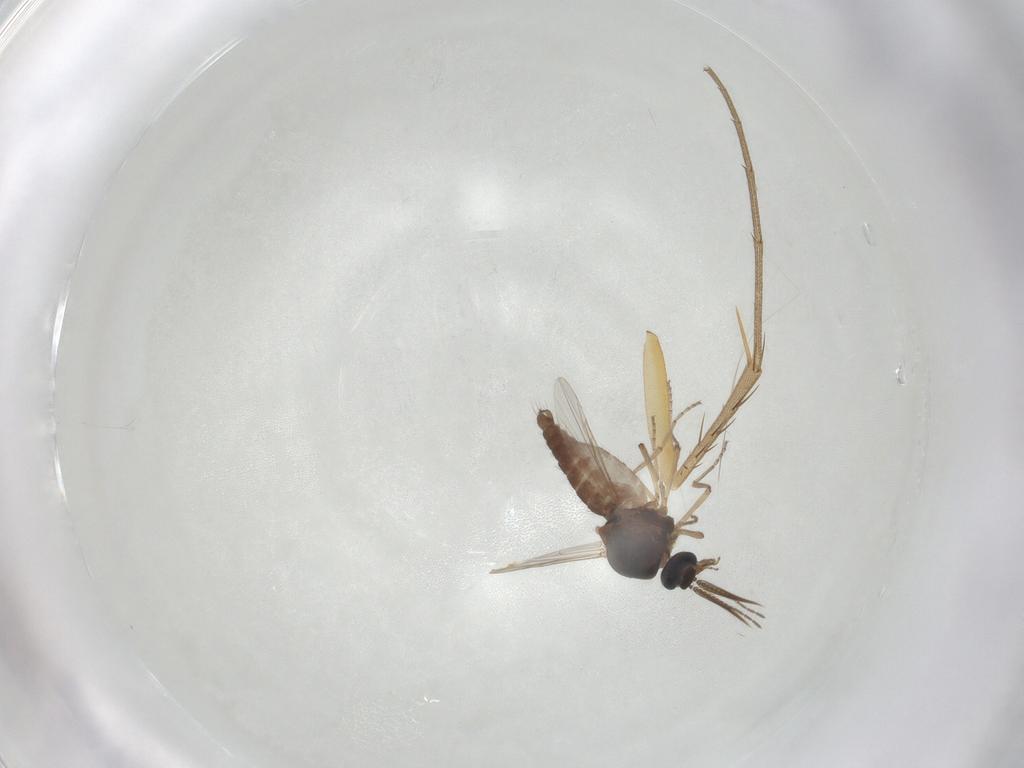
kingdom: Animalia
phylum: Arthropoda
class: Insecta
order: Diptera
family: Ceratopogonidae
